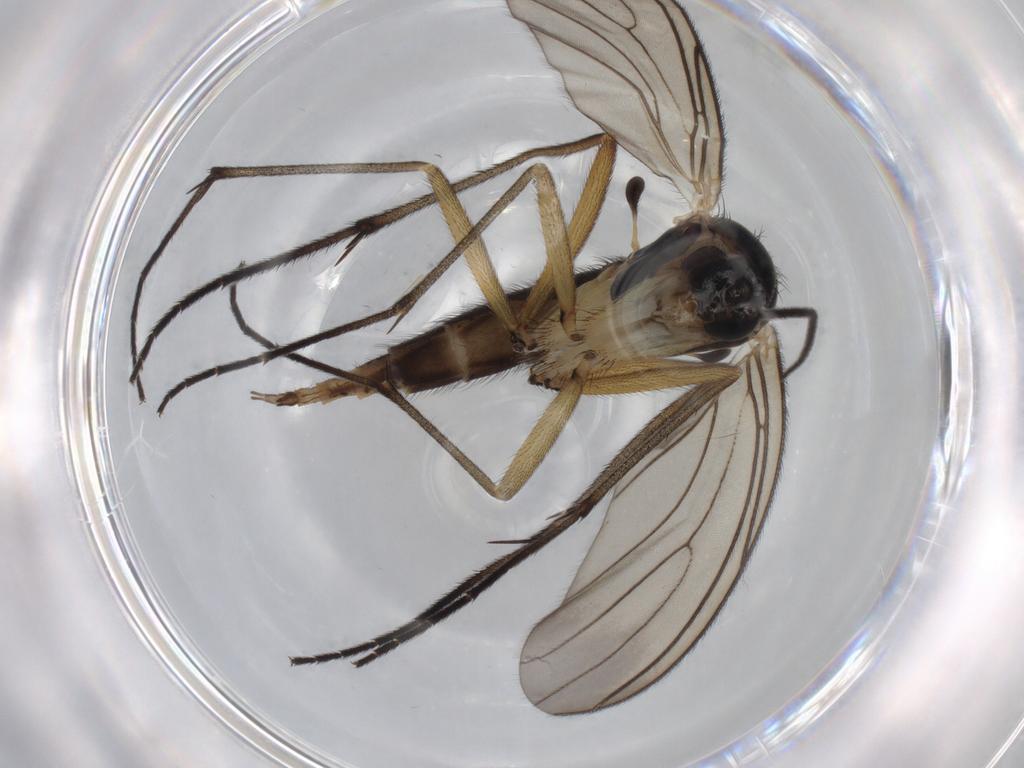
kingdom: Animalia
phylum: Arthropoda
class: Insecta
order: Diptera
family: Sciaridae
